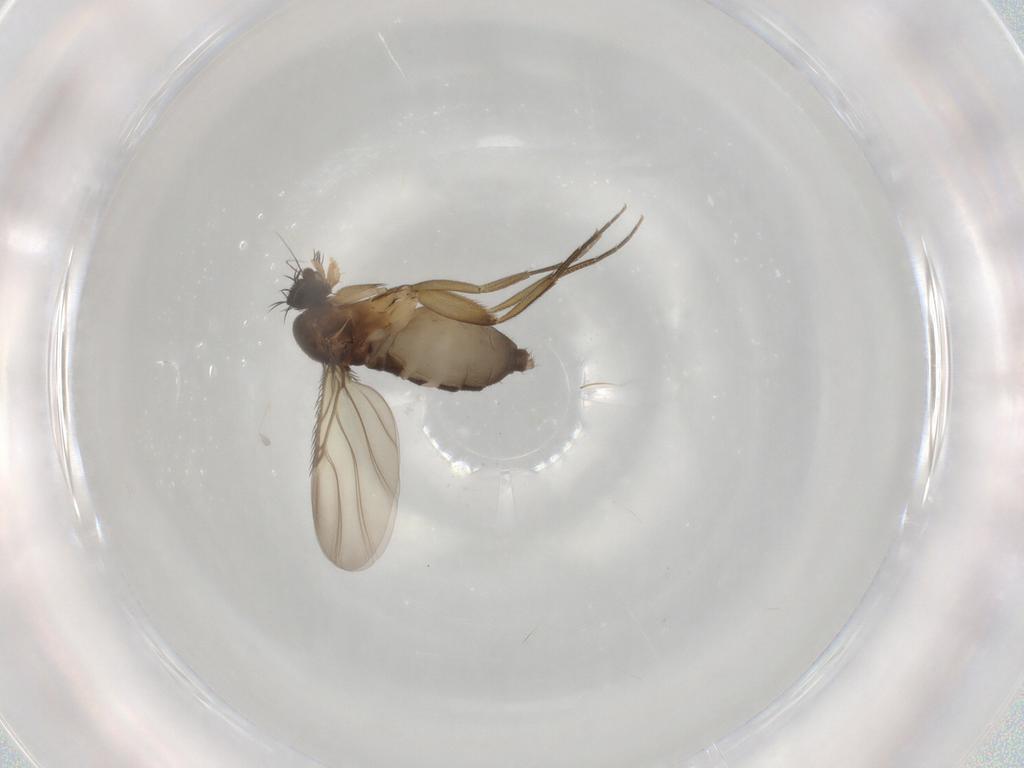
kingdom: Animalia
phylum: Arthropoda
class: Insecta
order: Diptera
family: Phoridae
